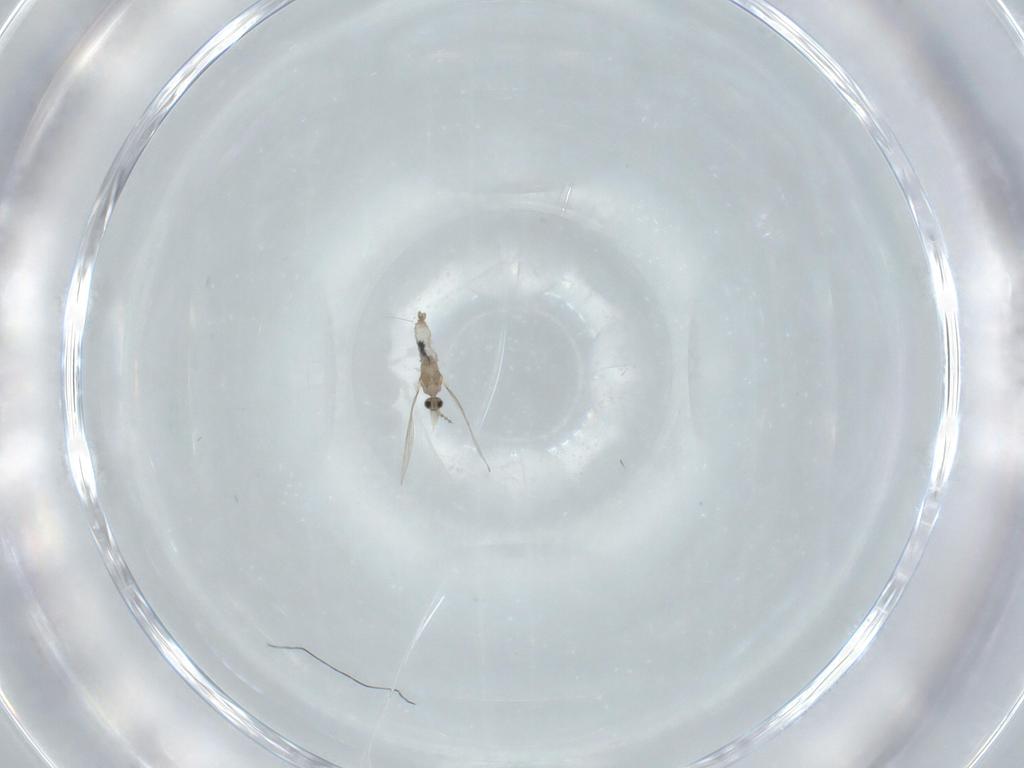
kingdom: Animalia
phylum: Arthropoda
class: Insecta
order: Diptera
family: Cecidomyiidae
